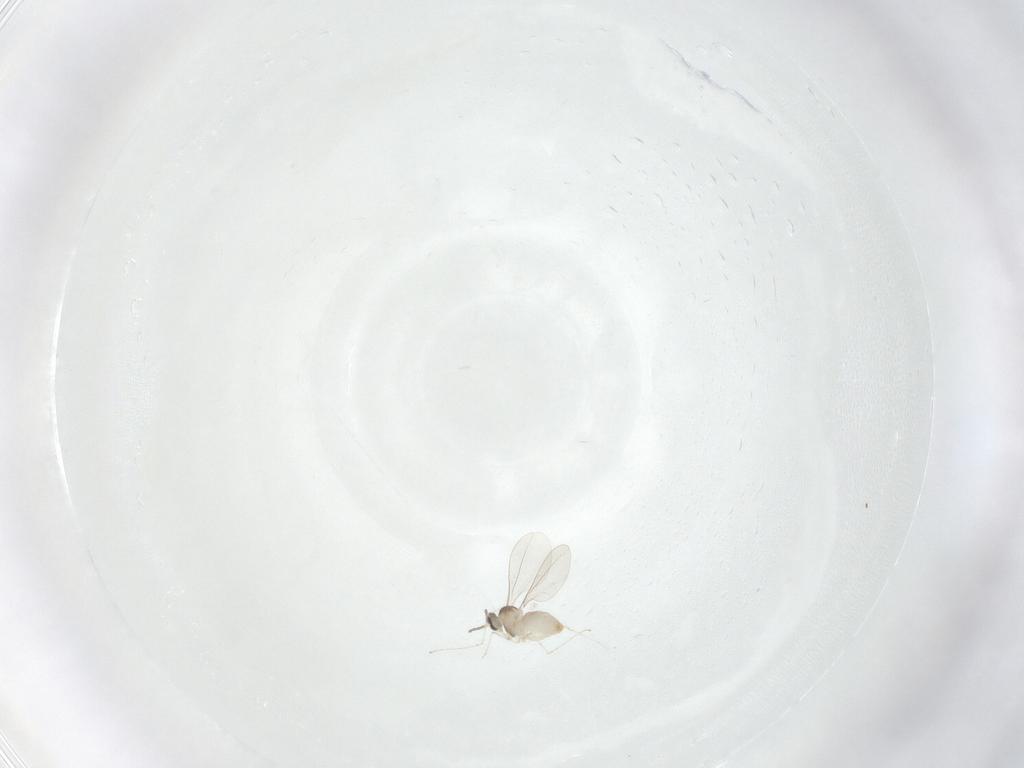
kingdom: Animalia
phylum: Arthropoda
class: Insecta
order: Diptera
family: Cecidomyiidae
